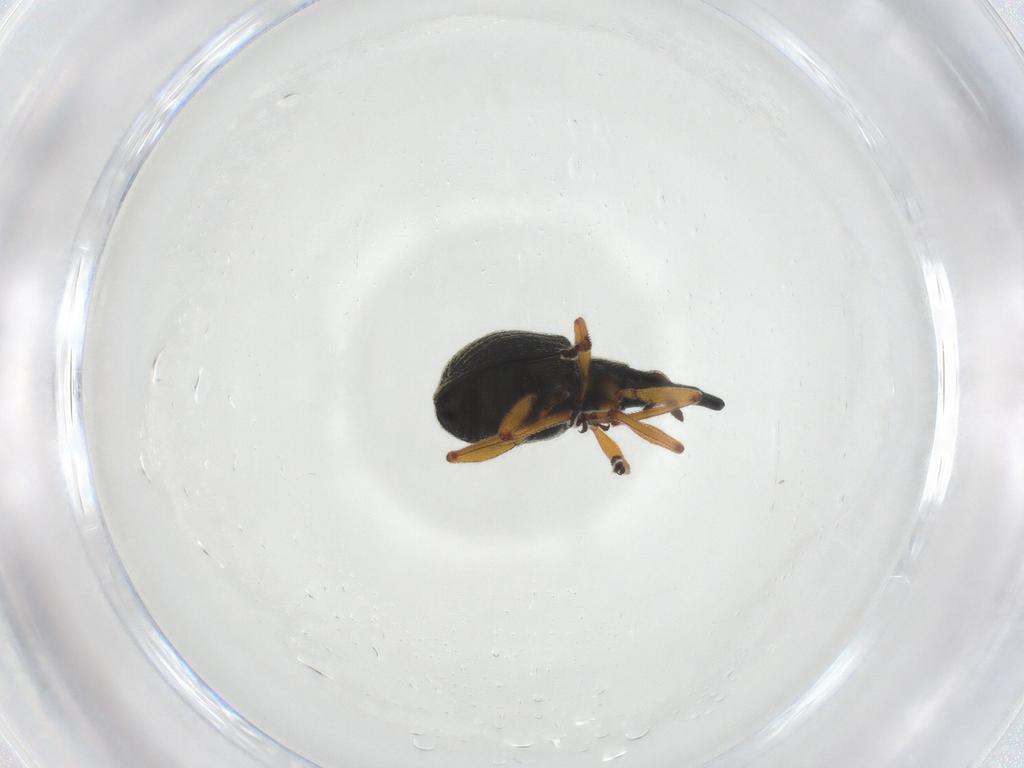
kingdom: Animalia
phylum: Arthropoda
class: Insecta
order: Coleoptera
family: Brentidae
